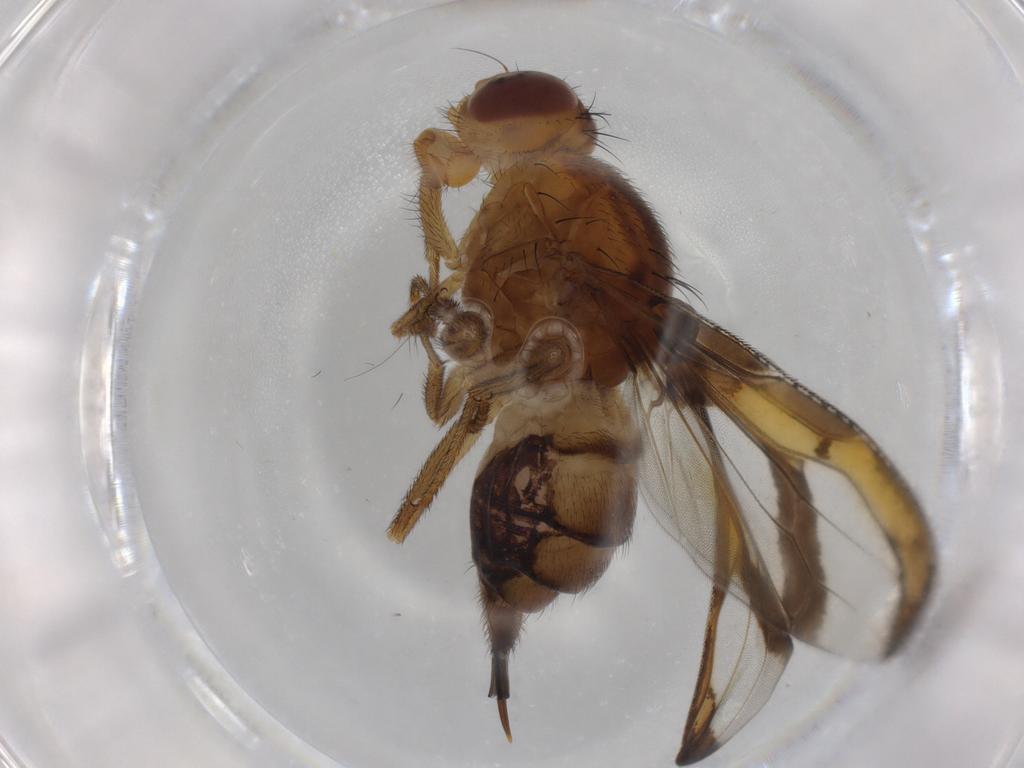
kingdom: Animalia
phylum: Arthropoda
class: Insecta
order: Diptera
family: Ulidiidae
